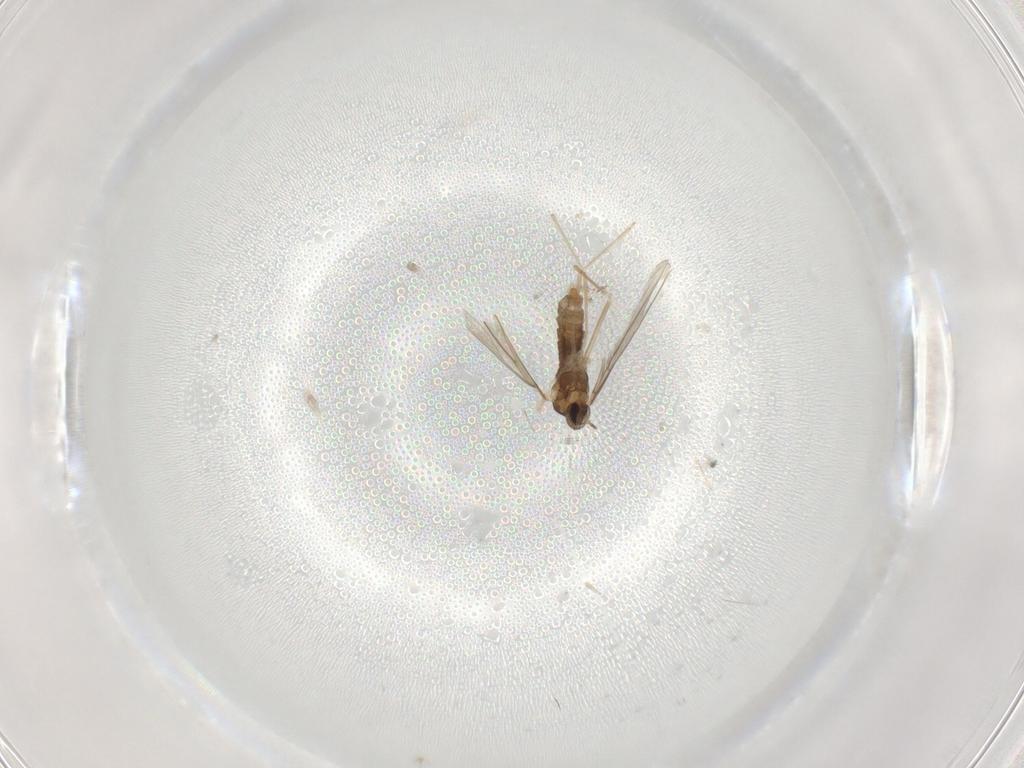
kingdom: Animalia
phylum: Arthropoda
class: Insecta
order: Diptera
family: Cecidomyiidae
